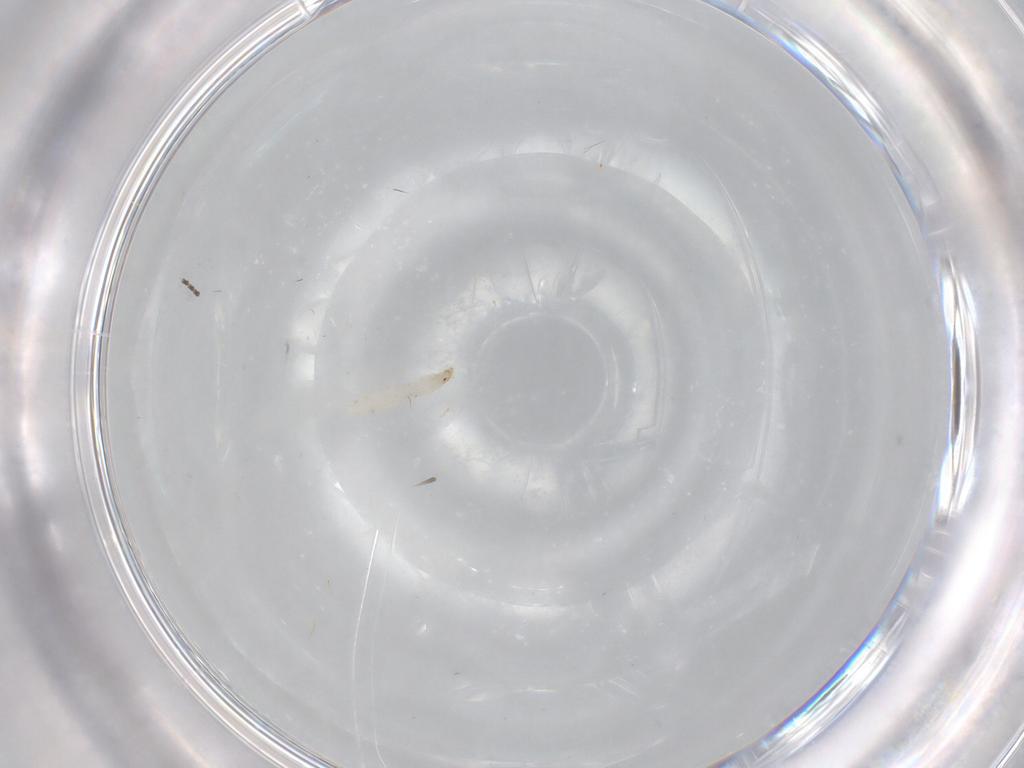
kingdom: Animalia
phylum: Arthropoda
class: Insecta
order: Diptera
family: Cecidomyiidae
